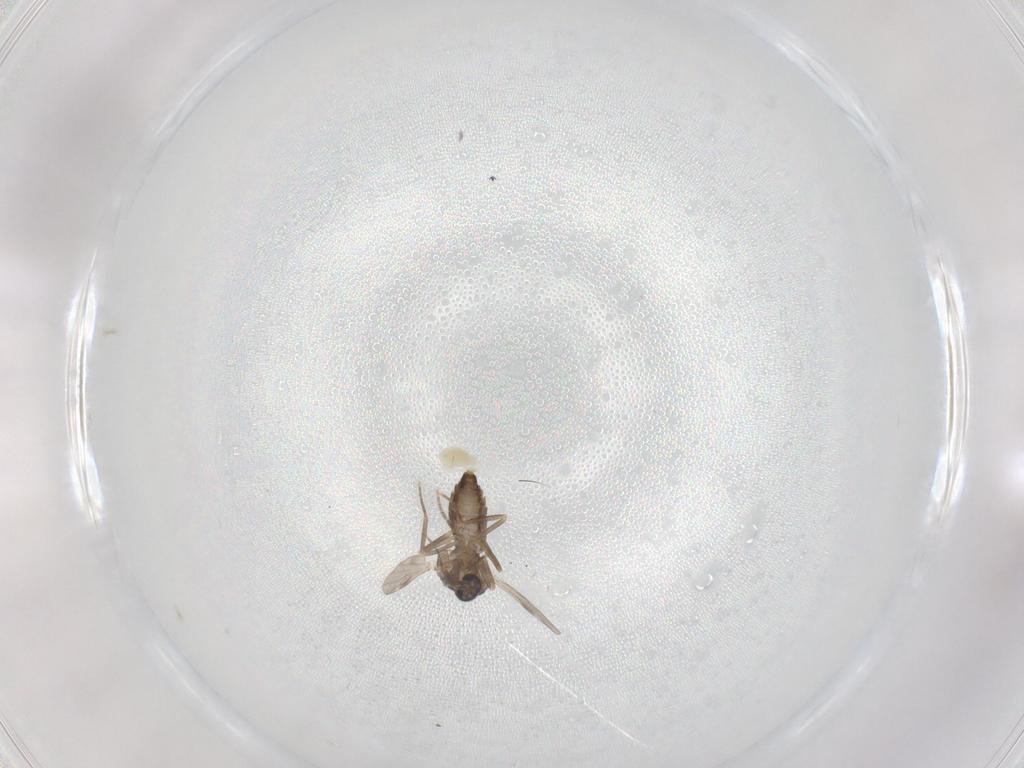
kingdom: Animalia
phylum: Arthropoda
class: Insecta
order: Diptera
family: Ceratopogonidae
